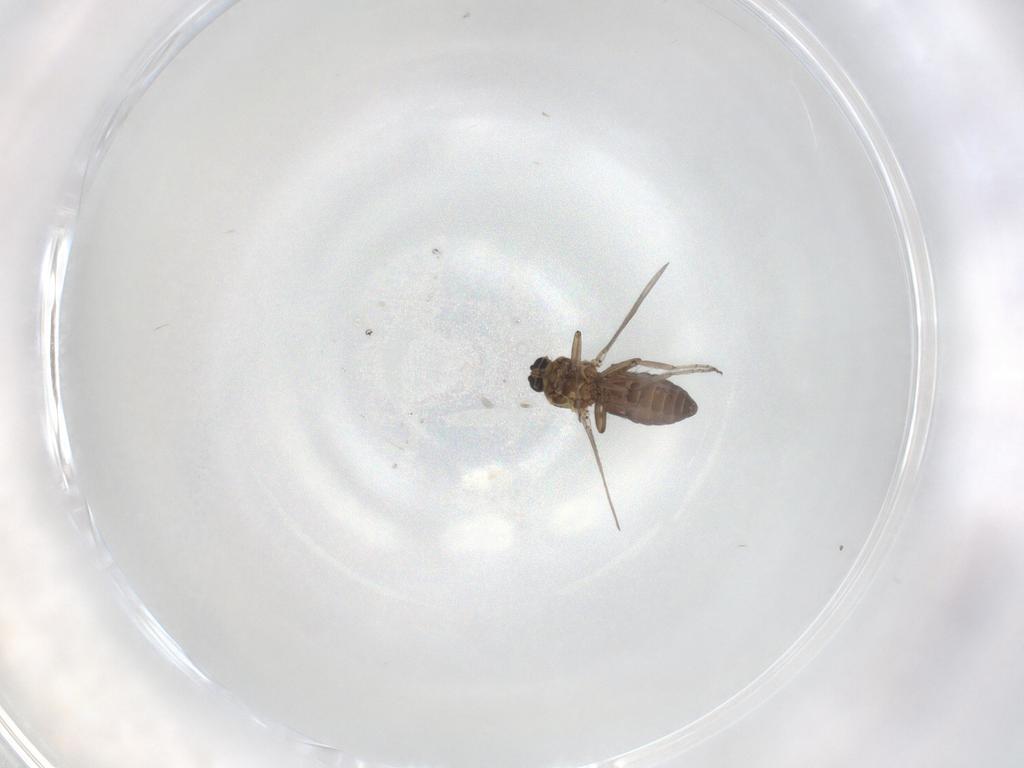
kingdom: Animalia
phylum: Arthropoda
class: Insecta
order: Diptera
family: Ceratopogonidae
